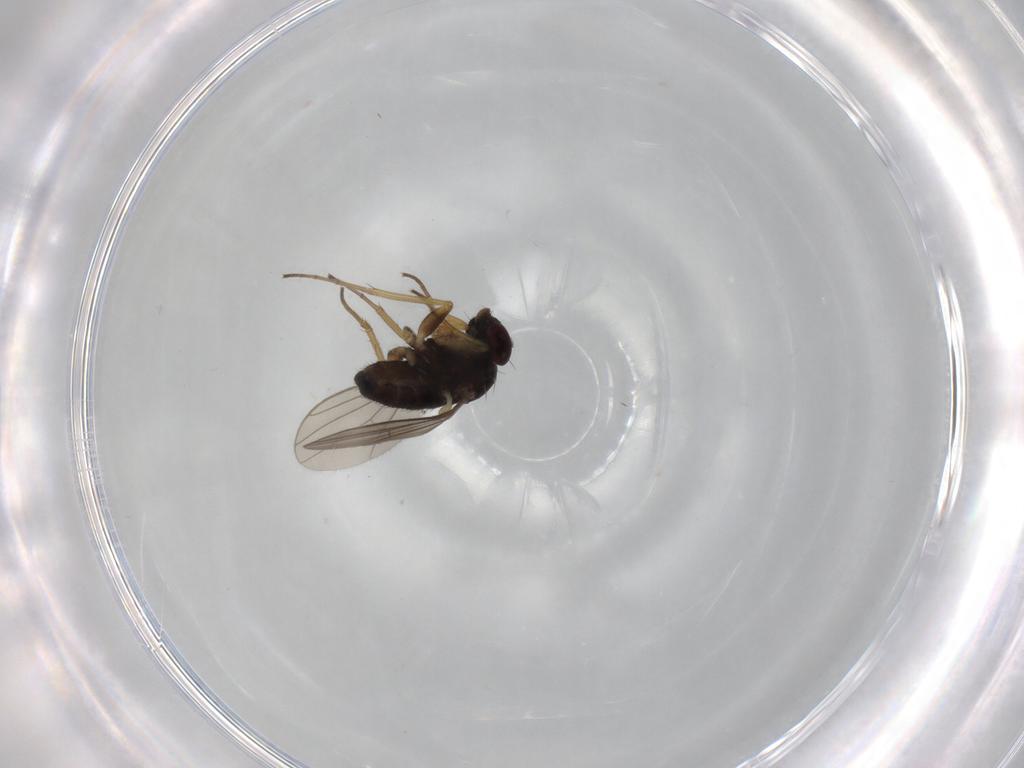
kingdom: Animalia
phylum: Arthropoda
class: Insecta
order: Diptera
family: Dolichopodidae
